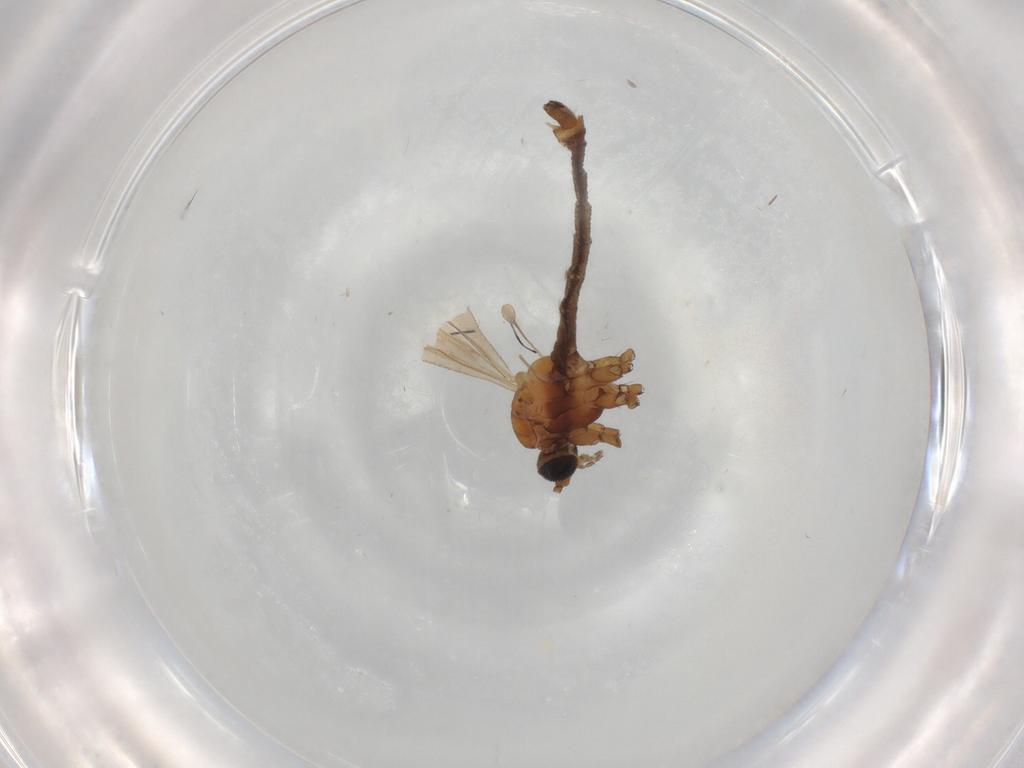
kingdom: Animalia
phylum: Arthropoda
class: Insecta
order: Diptera
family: Limoniidae
